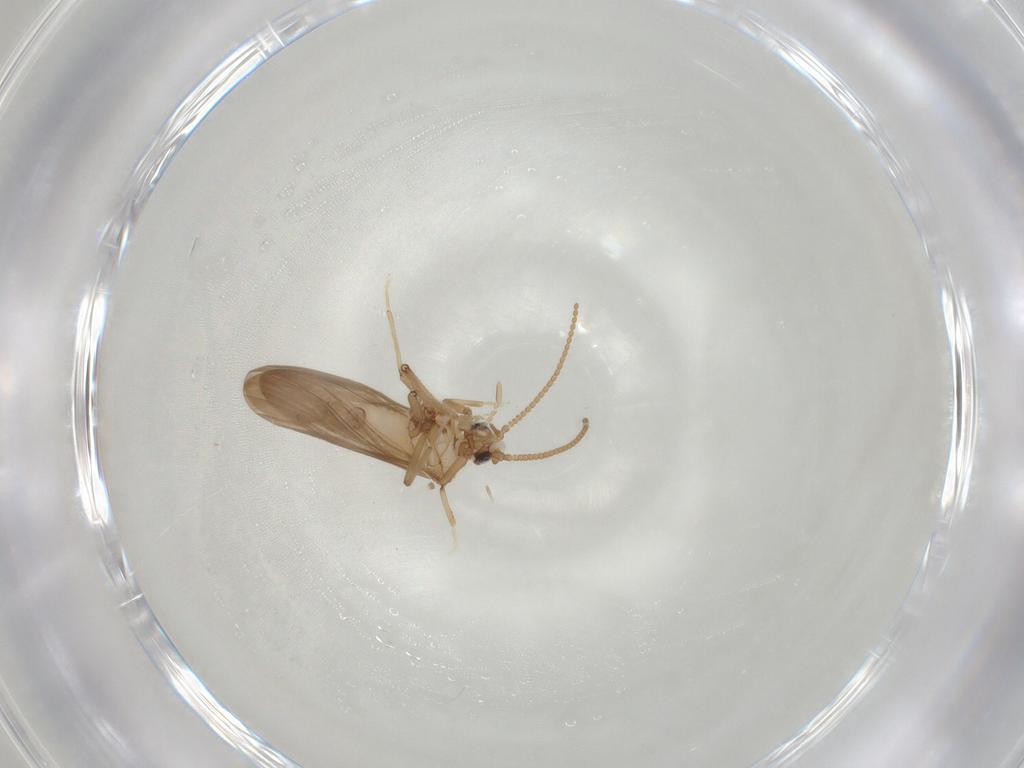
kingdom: Animalia
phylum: Arthropoda
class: Insecta
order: Neuroptera
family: Coniopterygidae
